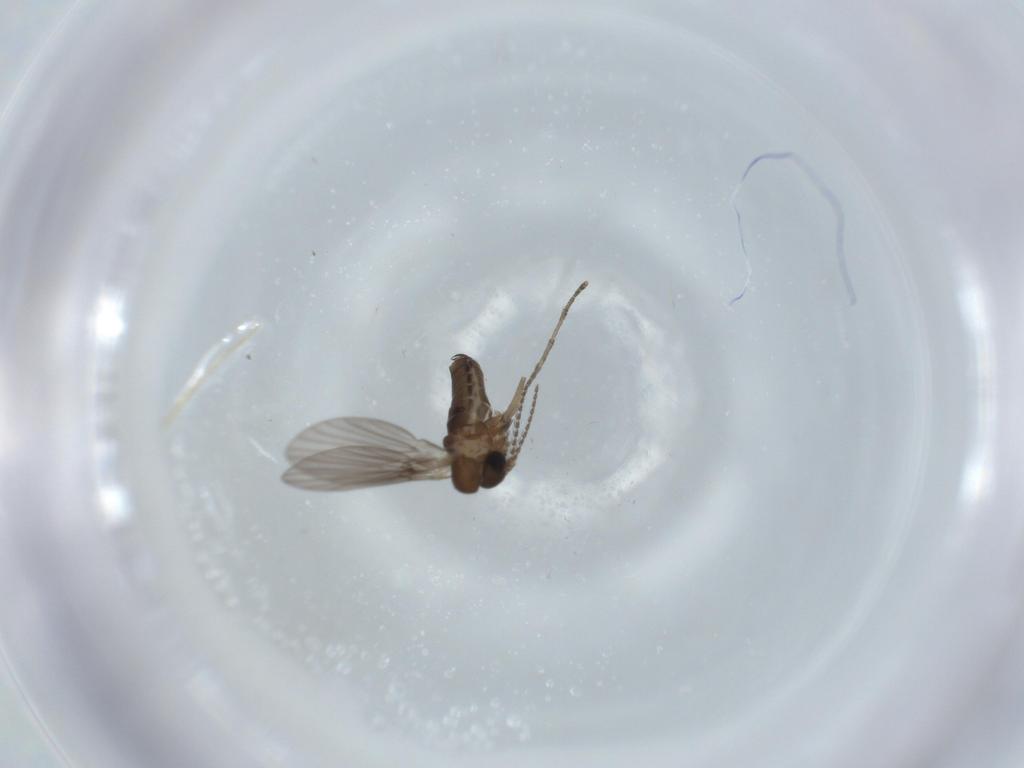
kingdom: Animalia
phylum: Arthropoda
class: Insecta
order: Diptera
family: Psychodidae
